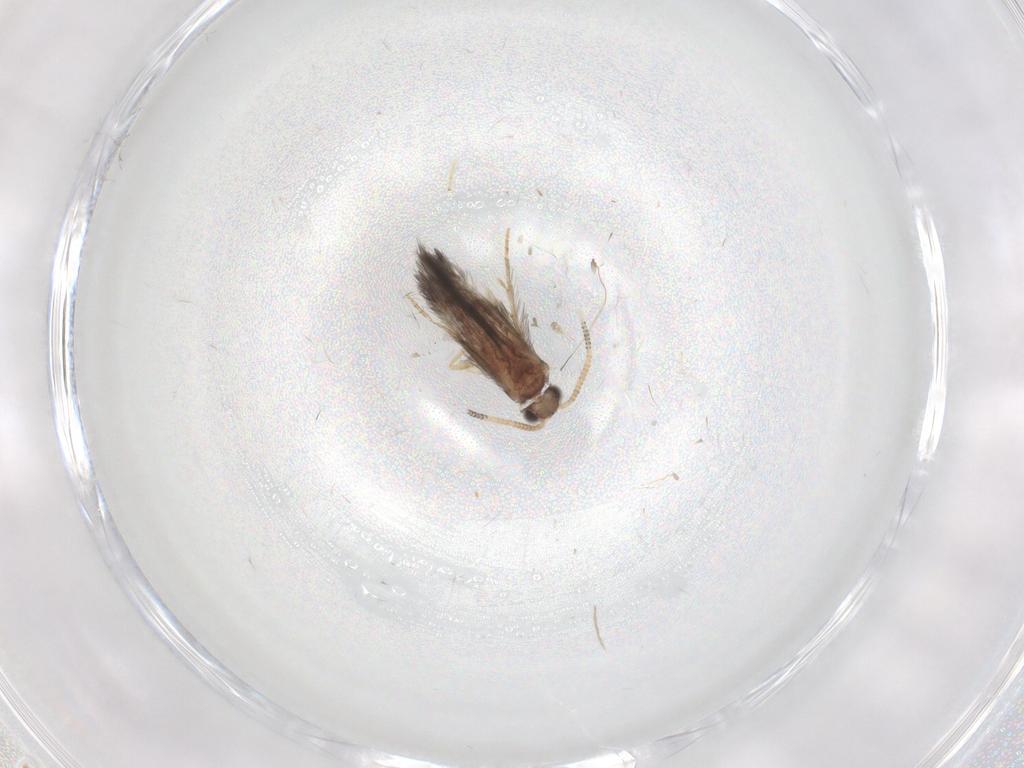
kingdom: Animalia
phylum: Arthropoda
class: Insecta
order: Trichoptera
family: Hydroptilidae
